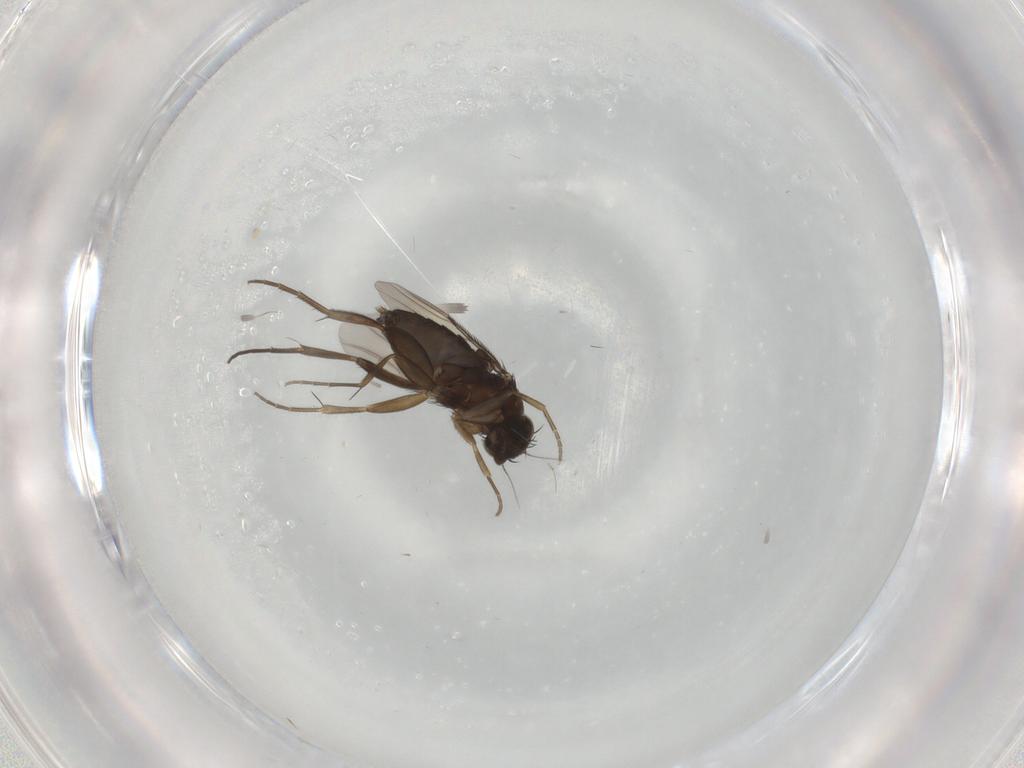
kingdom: Animalia
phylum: Arthropoda
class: Insecta
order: Diptera
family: Phoridae
